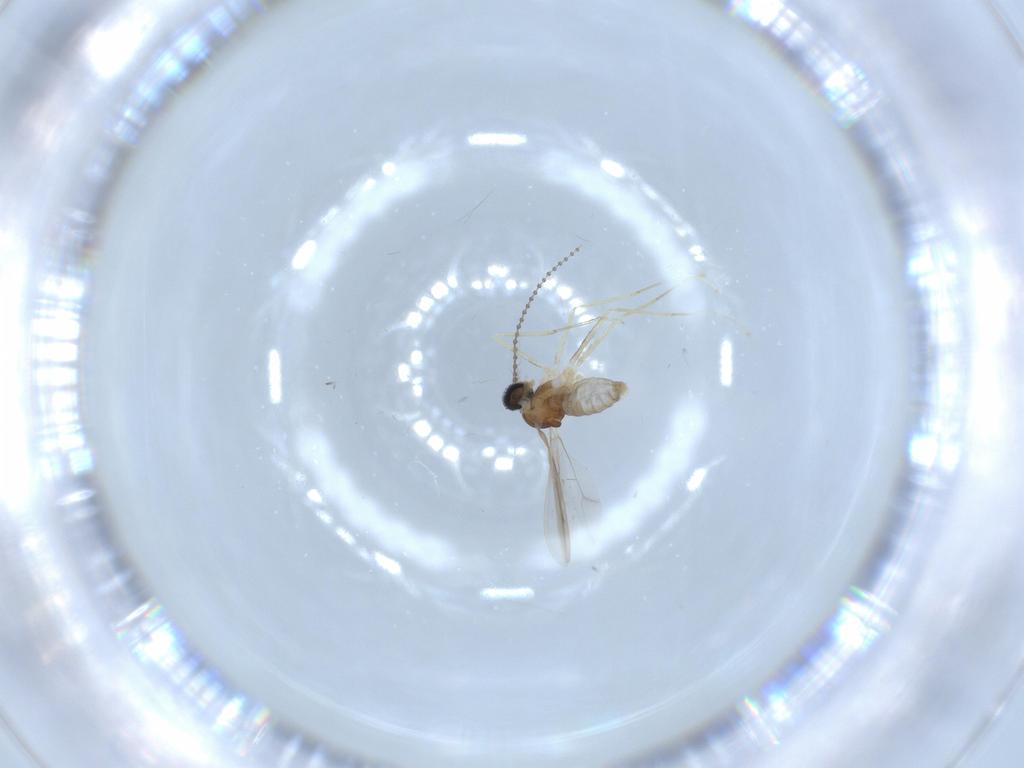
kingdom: Animalia
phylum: Arthropoda
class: Insecta
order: Diptera
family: Cecidomyiidae
